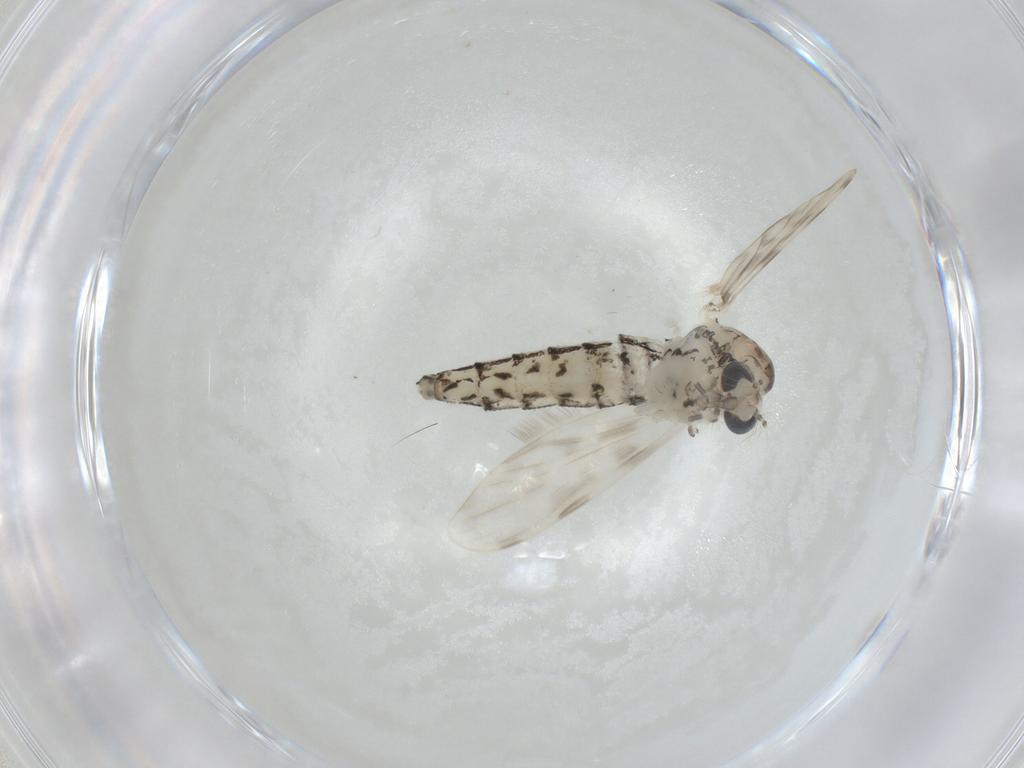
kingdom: Animalia
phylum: Arthropoda
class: Insecta
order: Diptera
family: Chaoboridae
